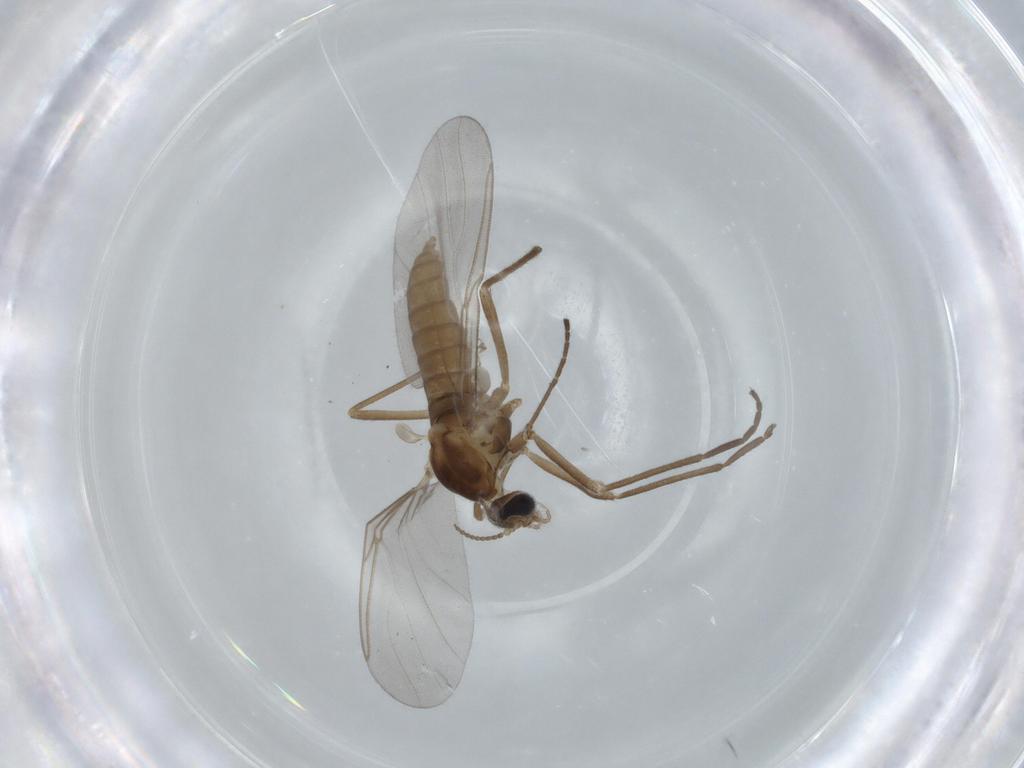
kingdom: Animalia
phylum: Arthropoda
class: Insecta
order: Diptera
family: Cecidomyiidae
